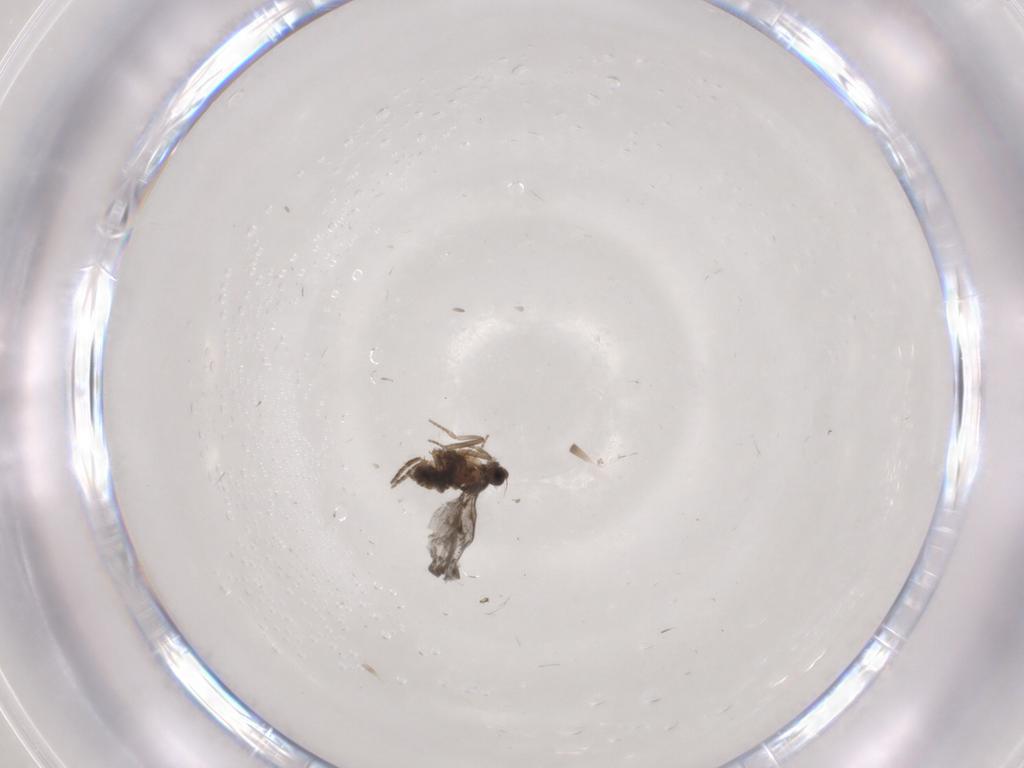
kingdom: Animalia
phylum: Arthropoda
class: Insecta
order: Diptera
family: Chironomidae
